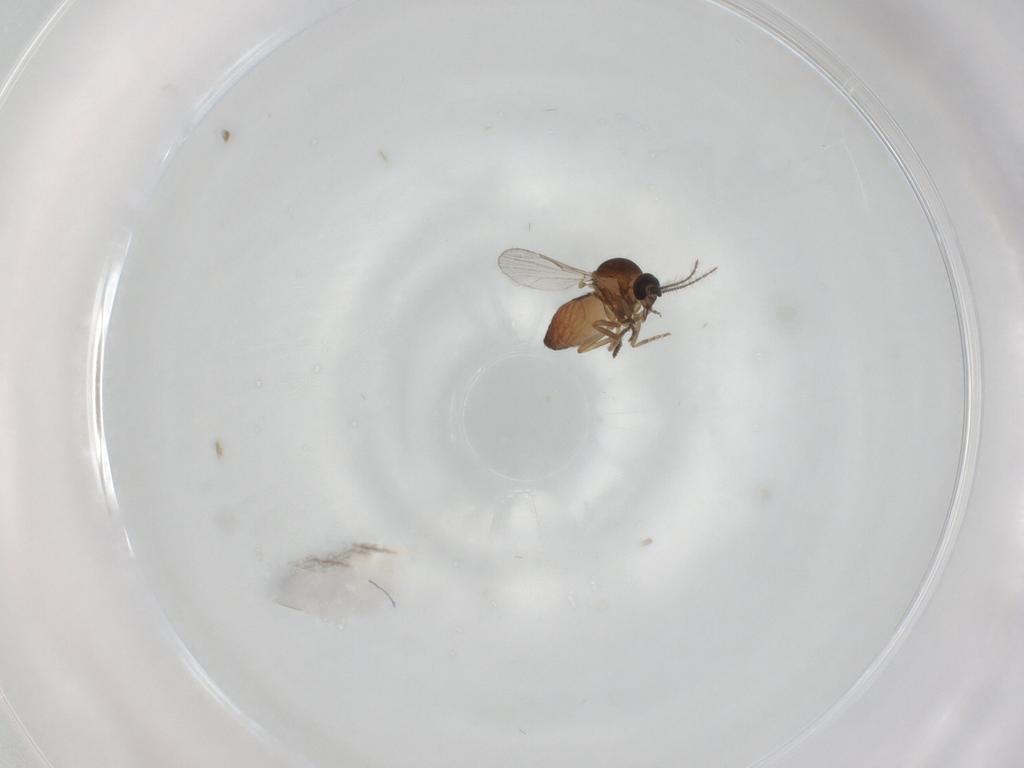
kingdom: Animalia
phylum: Arthropoda
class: Insecta
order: Diptera
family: Ceratopogonidae
